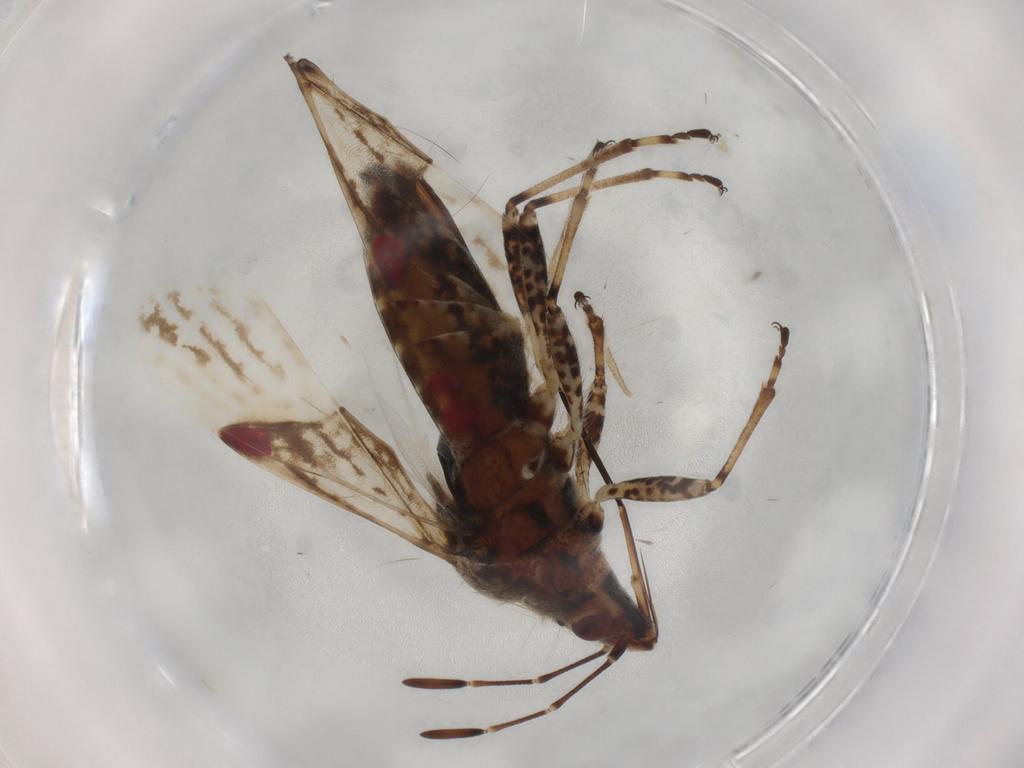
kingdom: Animalia
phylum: Arthropoda
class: Insecta
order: Hemiptera
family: Lygaeidae
